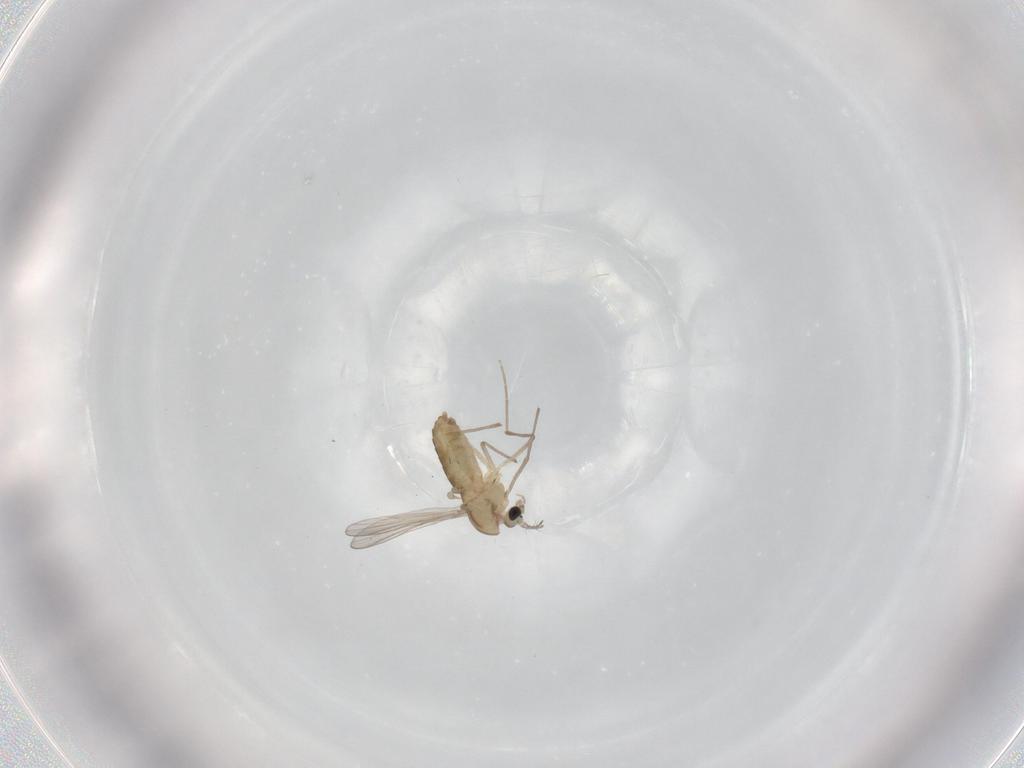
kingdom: Animalia
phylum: Arthropoda
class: Insecta
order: Diptera
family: Chironomidae
